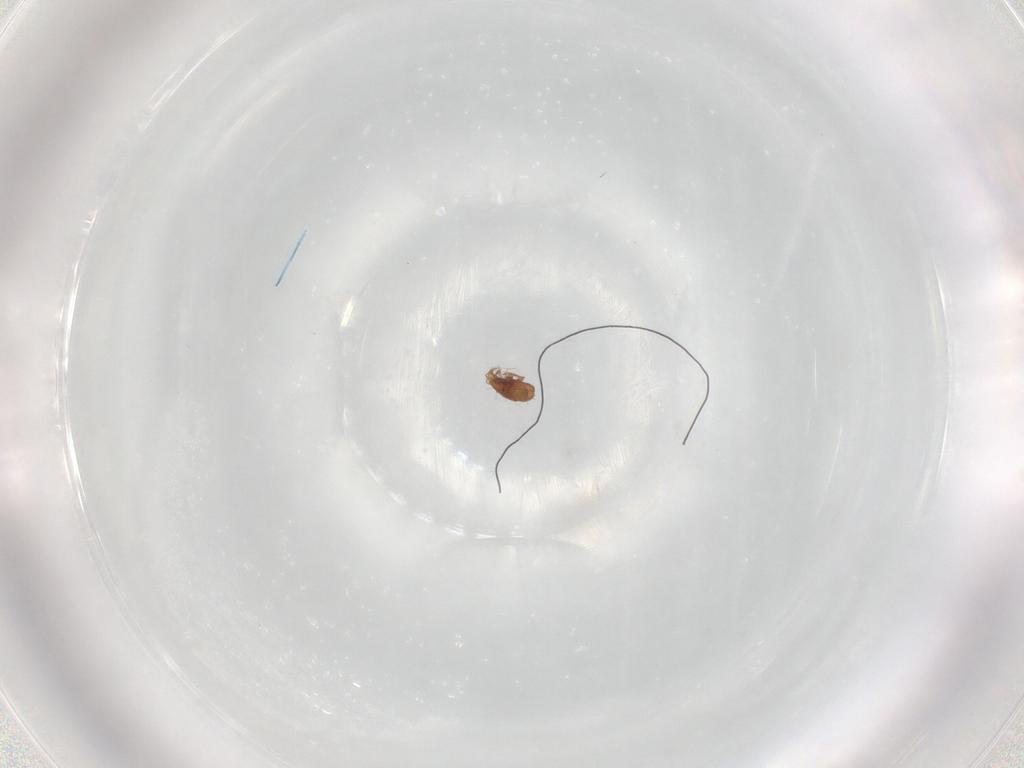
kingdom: Animalia
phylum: Arthropoda
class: Arachnida
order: Sarcoptiformes
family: Oribatulidae
